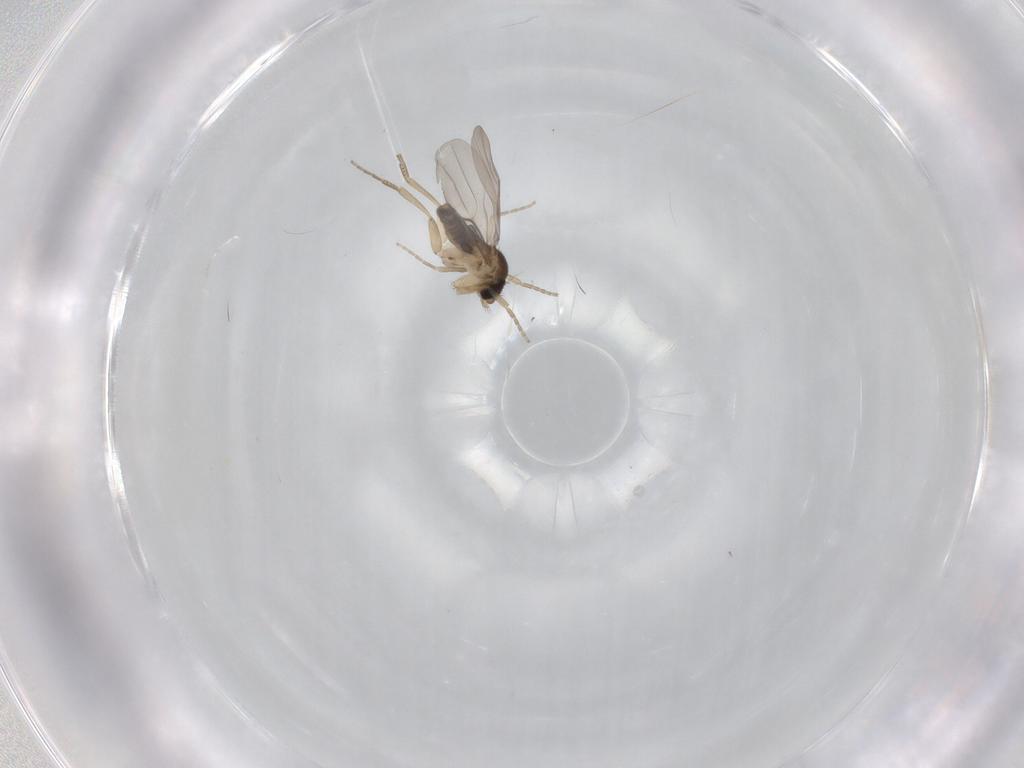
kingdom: Animalia
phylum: Arthropoda
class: Insecta
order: Diptera
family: Phoridae
